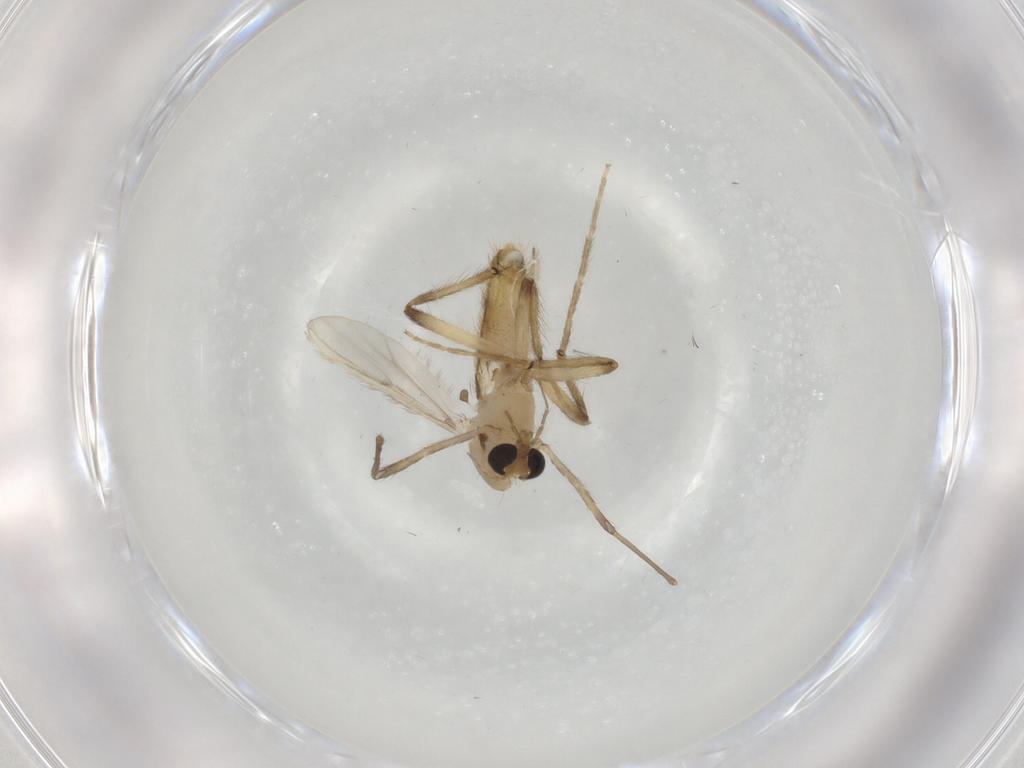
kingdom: Animalia
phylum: Arthropoda
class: Insecta
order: Diptera
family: Chironomidae
